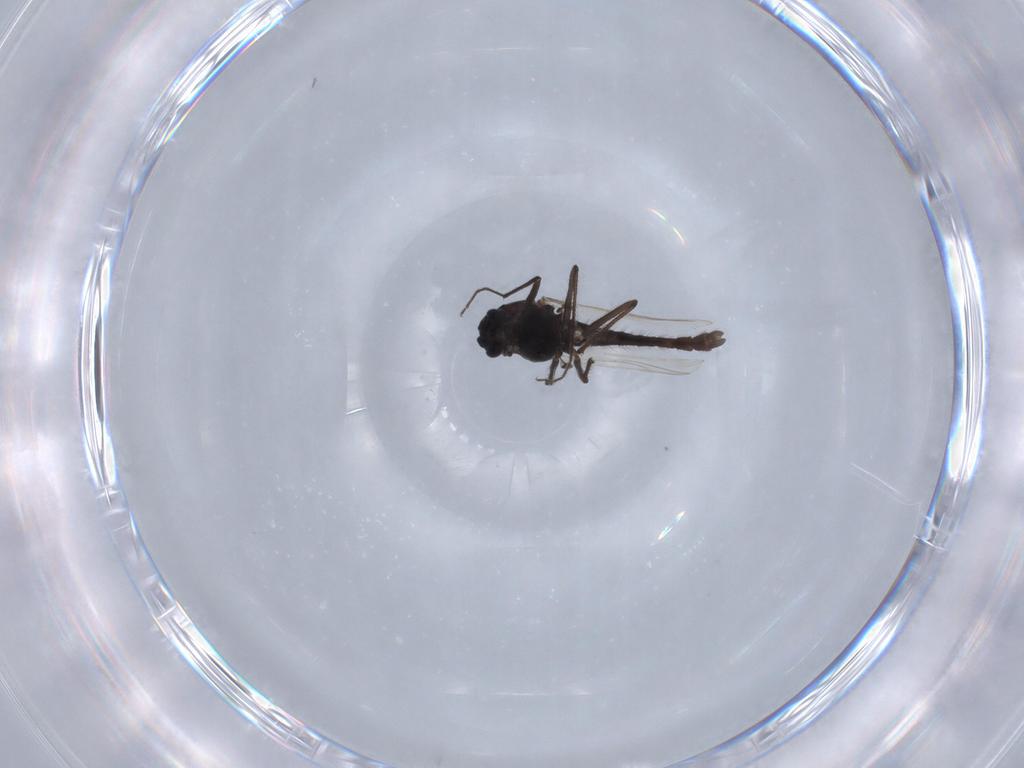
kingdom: Animalia
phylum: Arthropoda
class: Insecta
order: Diptera
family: Chironomidae
